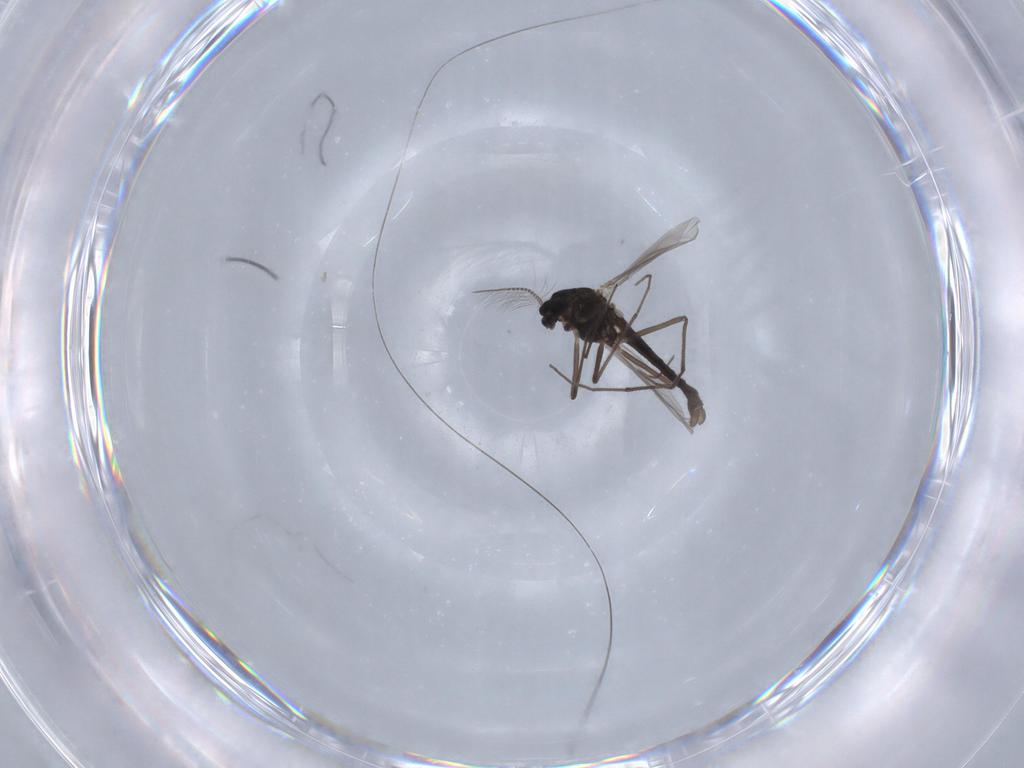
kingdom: Animalia
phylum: Arthropoda
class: Insecta
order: Diptera
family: Chironomidae
